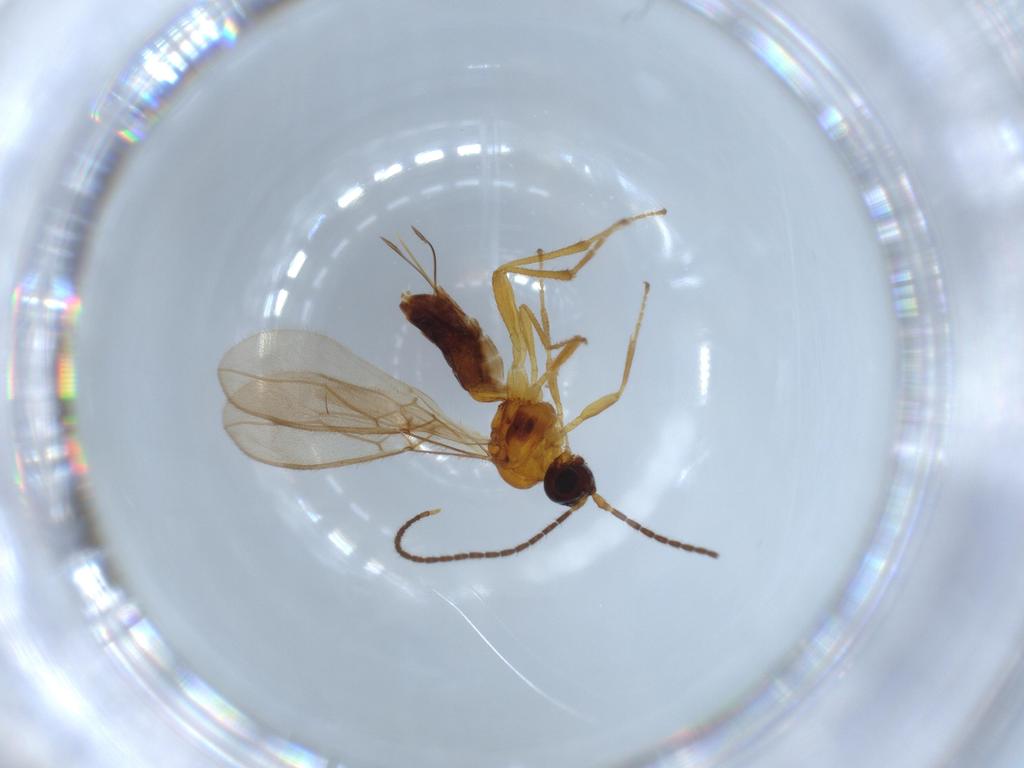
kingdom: Animalia
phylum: Arthropoda
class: Insecta
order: Hymenoptera
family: Braconidae
